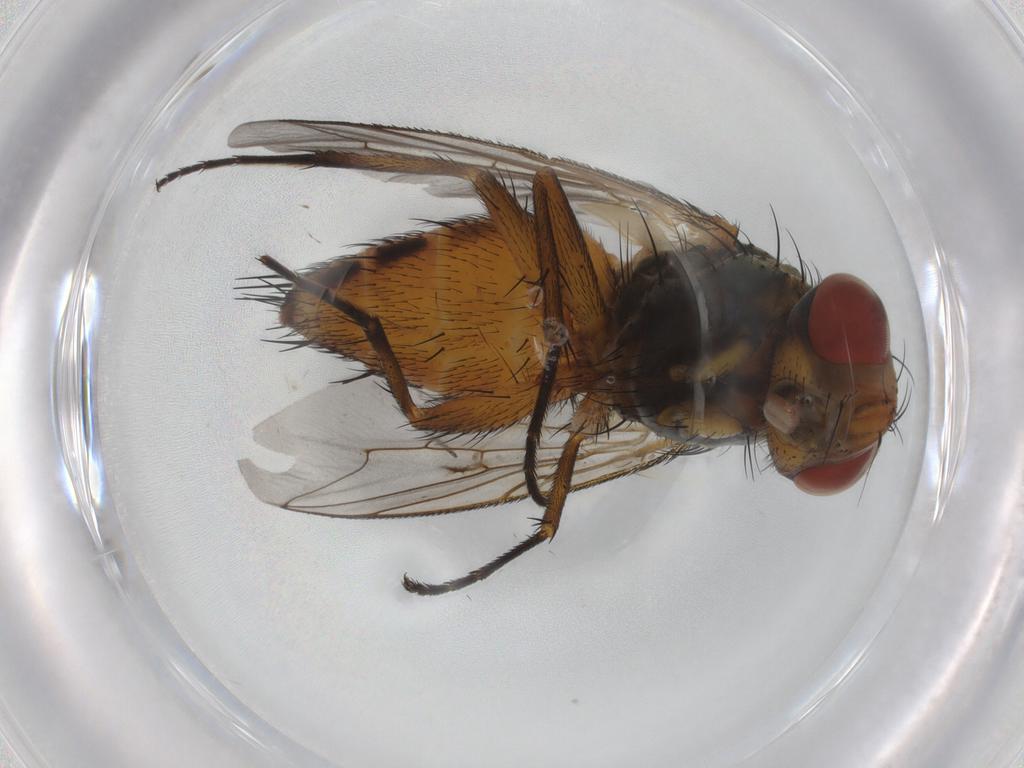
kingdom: Animalia
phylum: Arthropoda
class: Insecta
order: Diptera
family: Sarcophagidae
